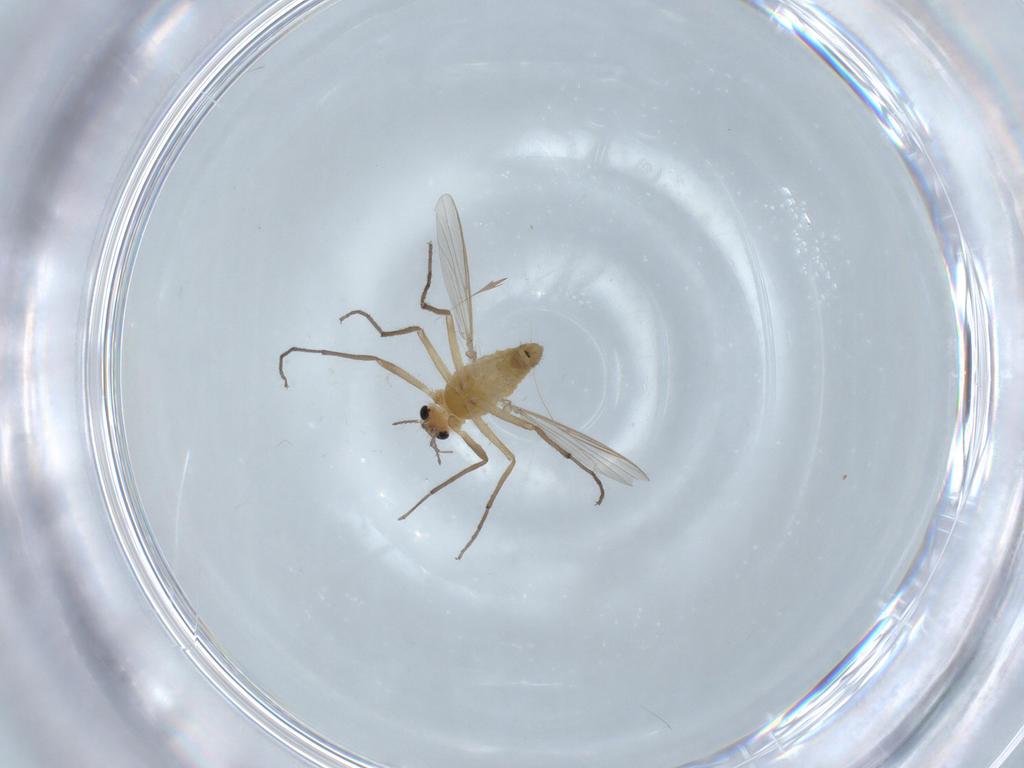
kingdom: Animalia
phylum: Arthropoda
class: Insecta
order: Diptera
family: Chironomidae
